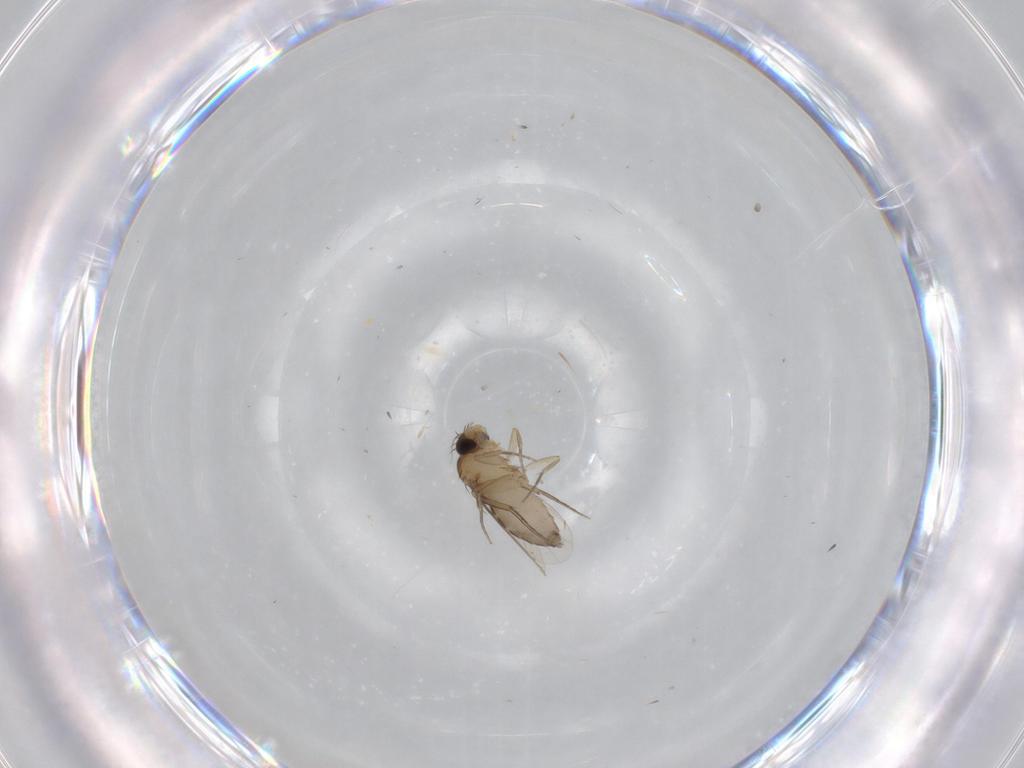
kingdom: Animalia
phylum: Arthropoda
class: Insecta
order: Diptera
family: Phoridae
